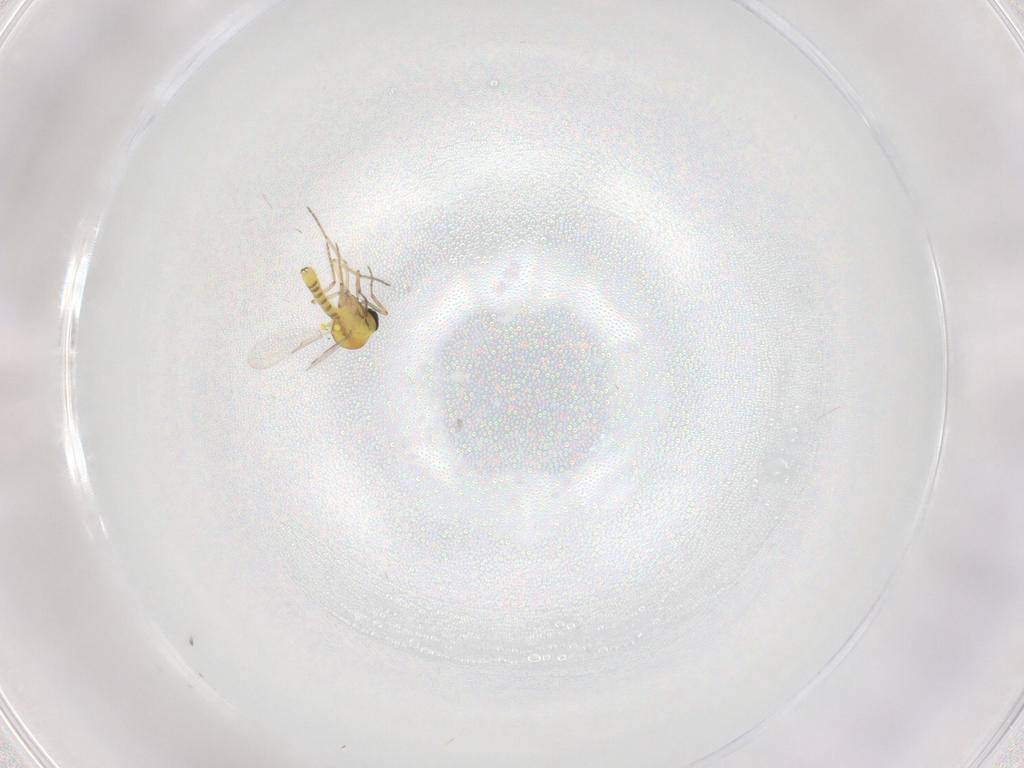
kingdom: Animalia
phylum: Arthropoda
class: Insecta
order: Diptera
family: Ceratopogonidae
